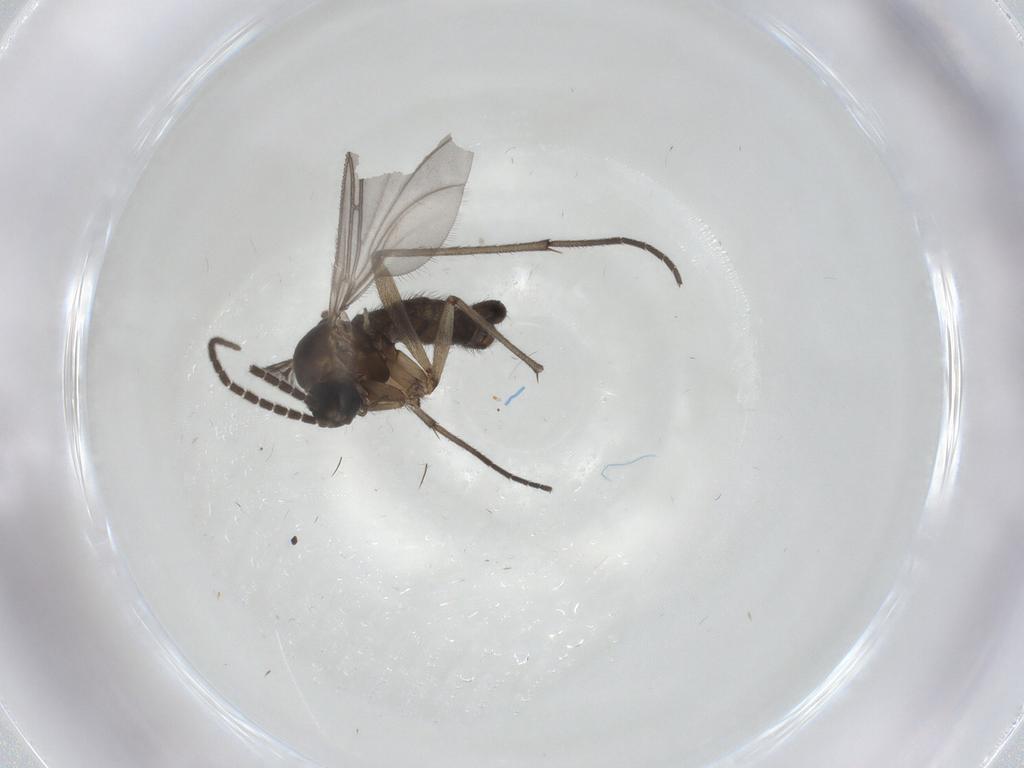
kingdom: Animalia
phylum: Arthropoda
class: Insecta
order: Diptera
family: Sciaridae
